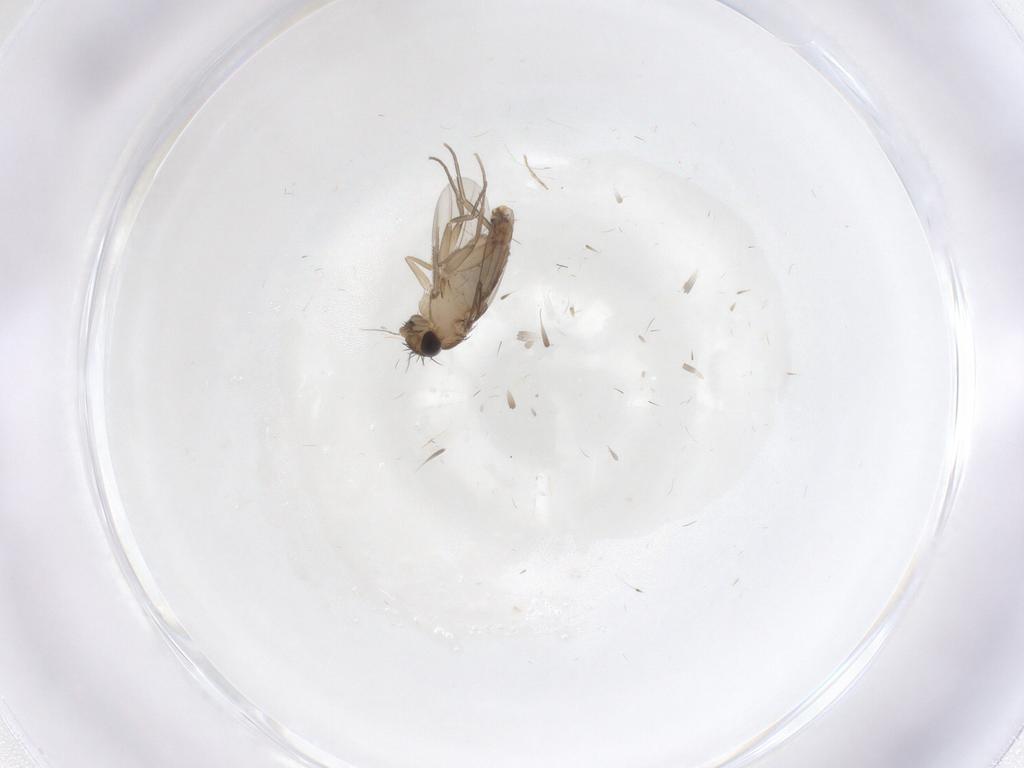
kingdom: Animalia
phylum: Arthropoda
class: Insecta
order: Diptera
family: Phoridae
